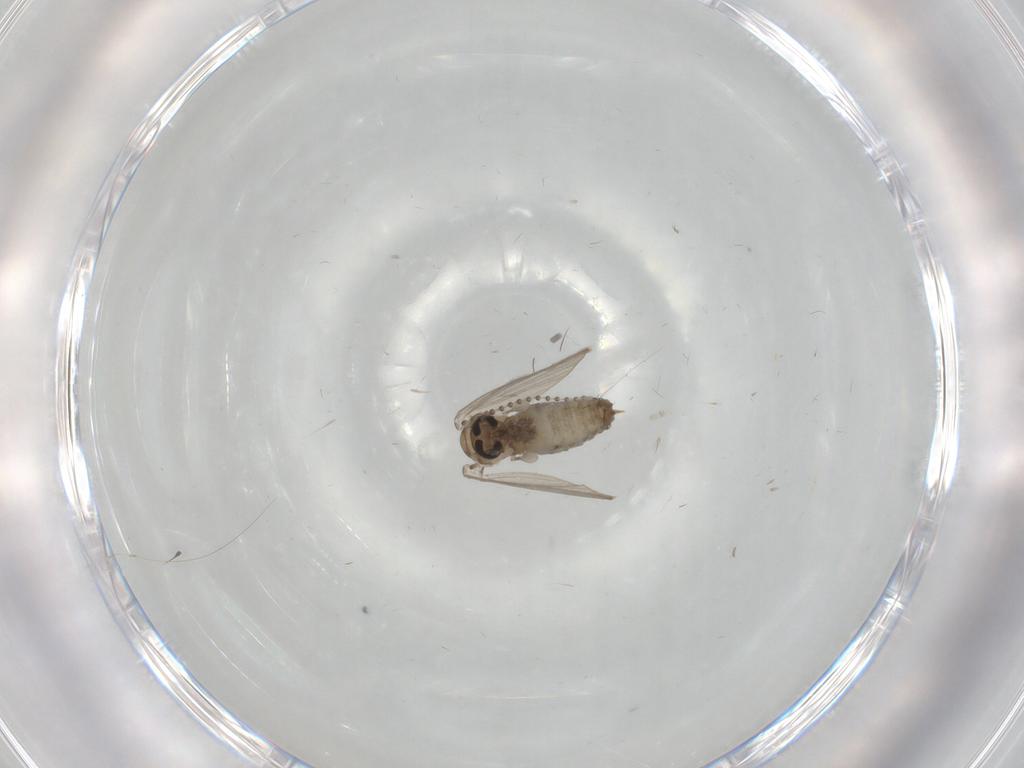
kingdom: Animalia
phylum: Arthropoda
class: Insecta
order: Diptera
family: Psychodidae
